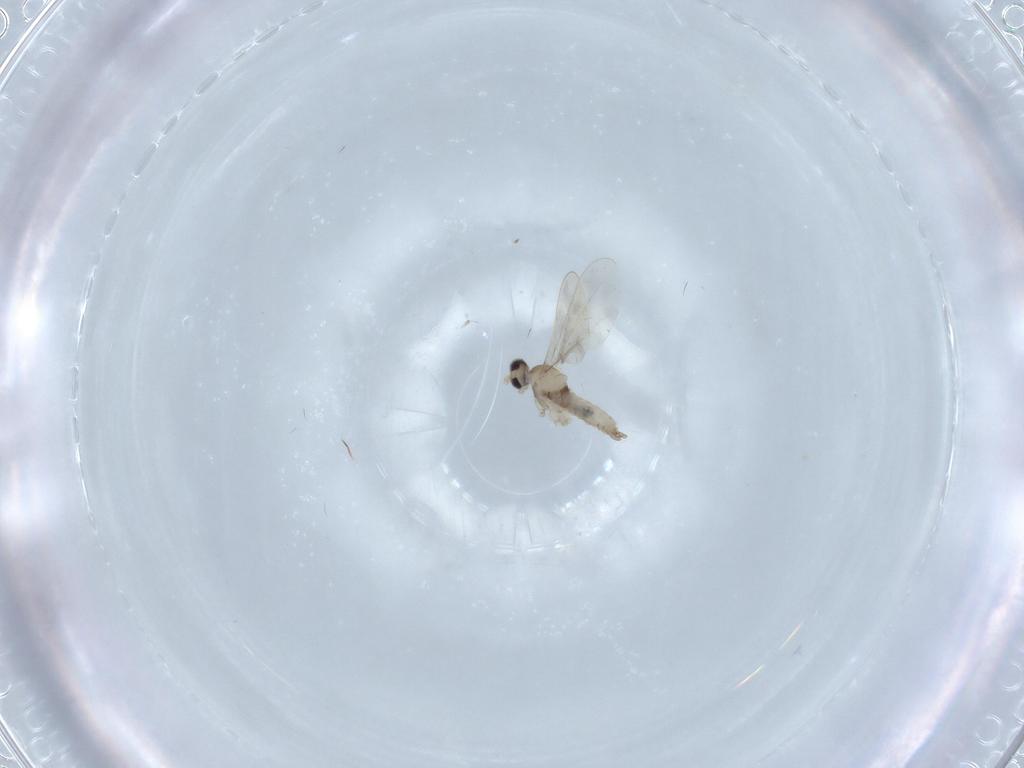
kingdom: Animalia
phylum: Arthropoda
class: Insecta
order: Diptera
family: Cecidomyiidae
